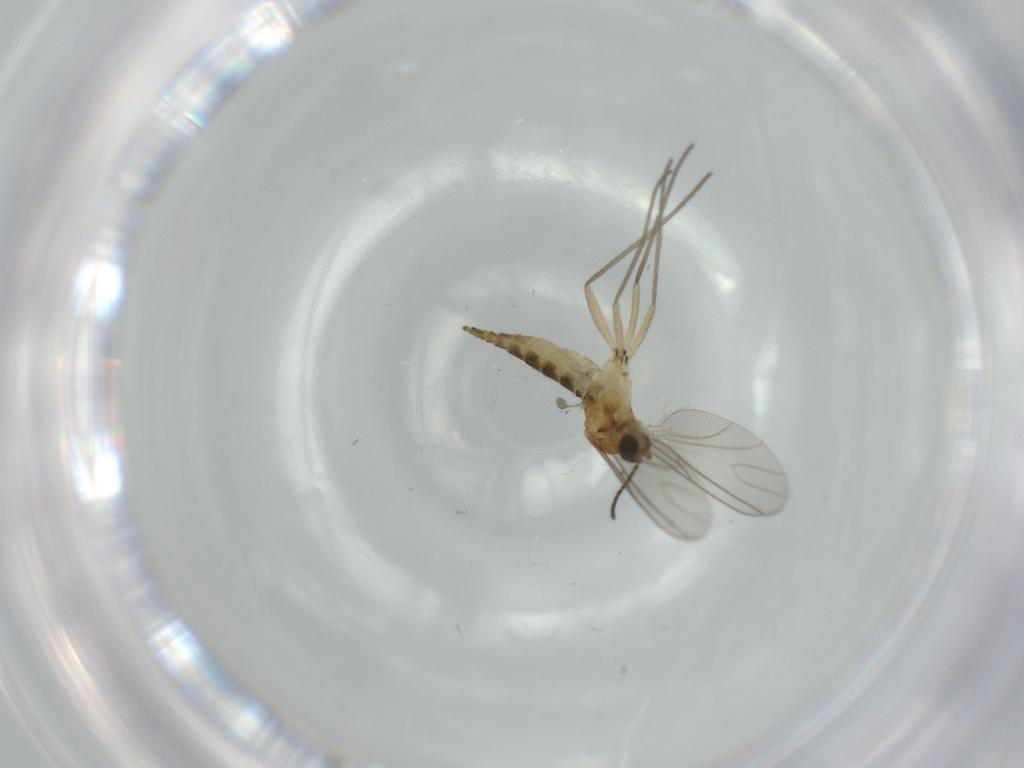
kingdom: Animalia
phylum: Arthropoda
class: Insecta
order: Diptera
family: Sciaridae
